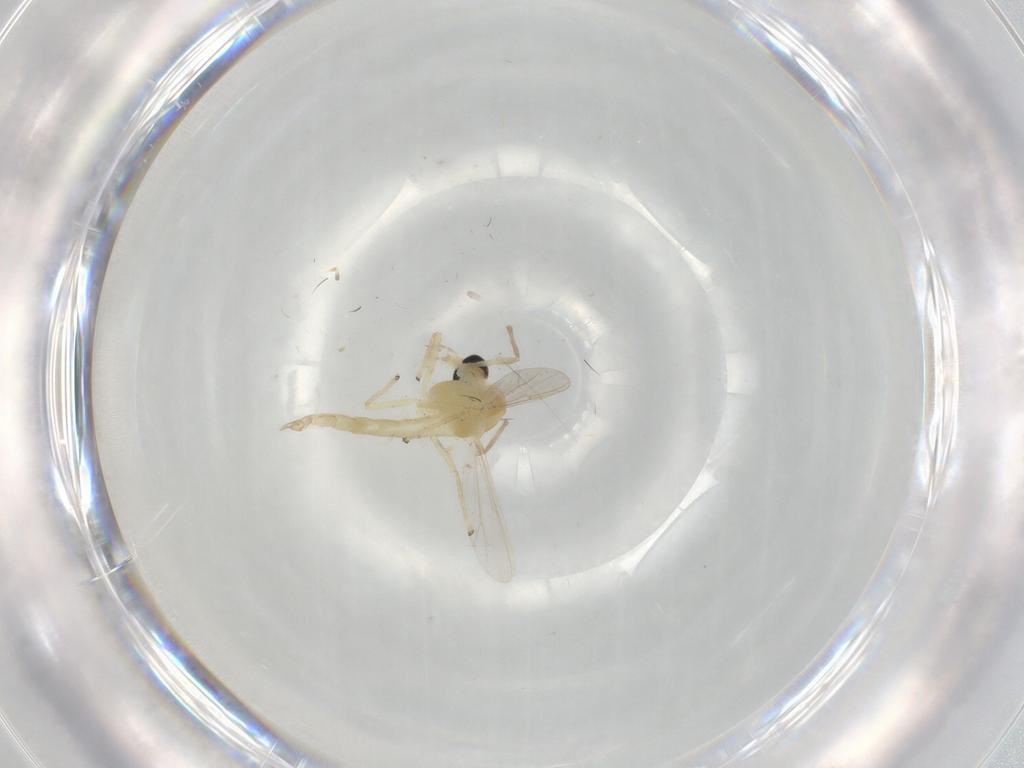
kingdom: Animalia
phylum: Arthropoda
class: Insecta
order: Diptera
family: Chironomidae
